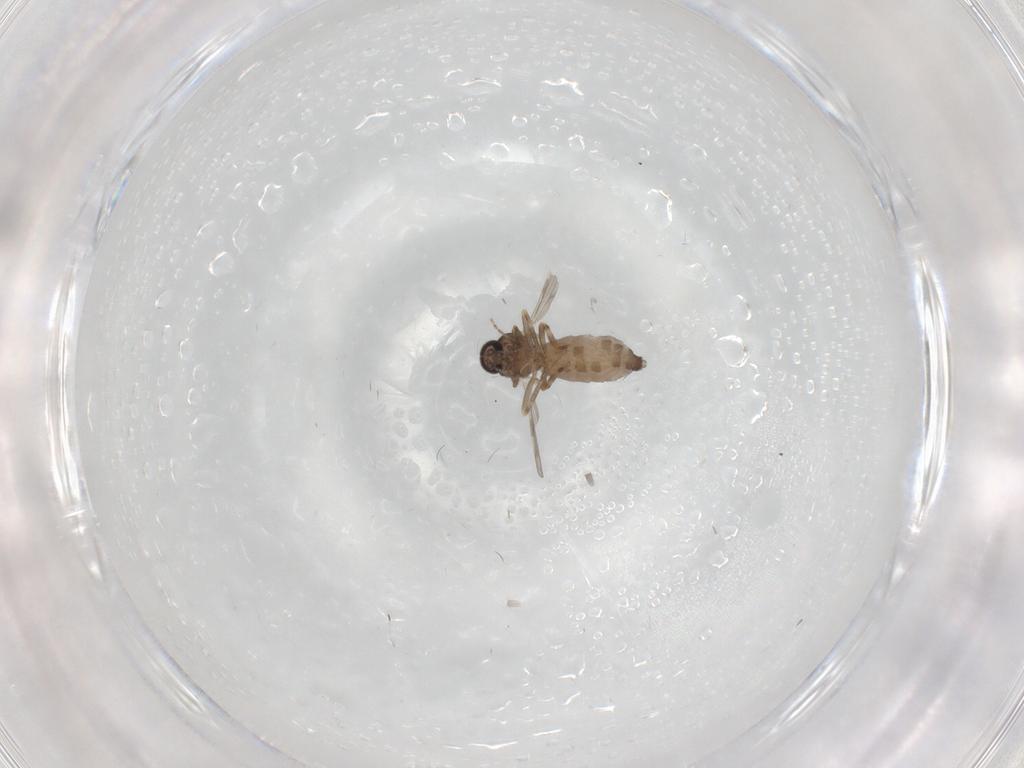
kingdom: Animalia
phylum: Arthropoda
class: Insecta
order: Diptera
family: Ceratopogonidae
